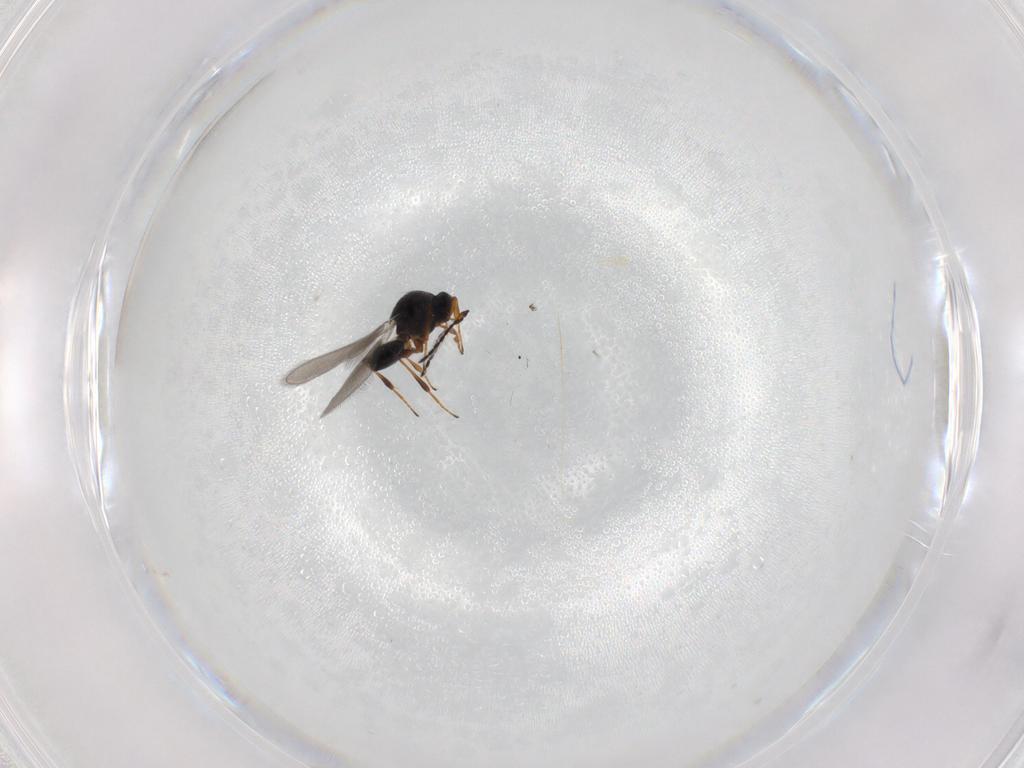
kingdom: Animalia
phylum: Arthropoda
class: Insecta
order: Hymenoptera
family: Platygastridae
